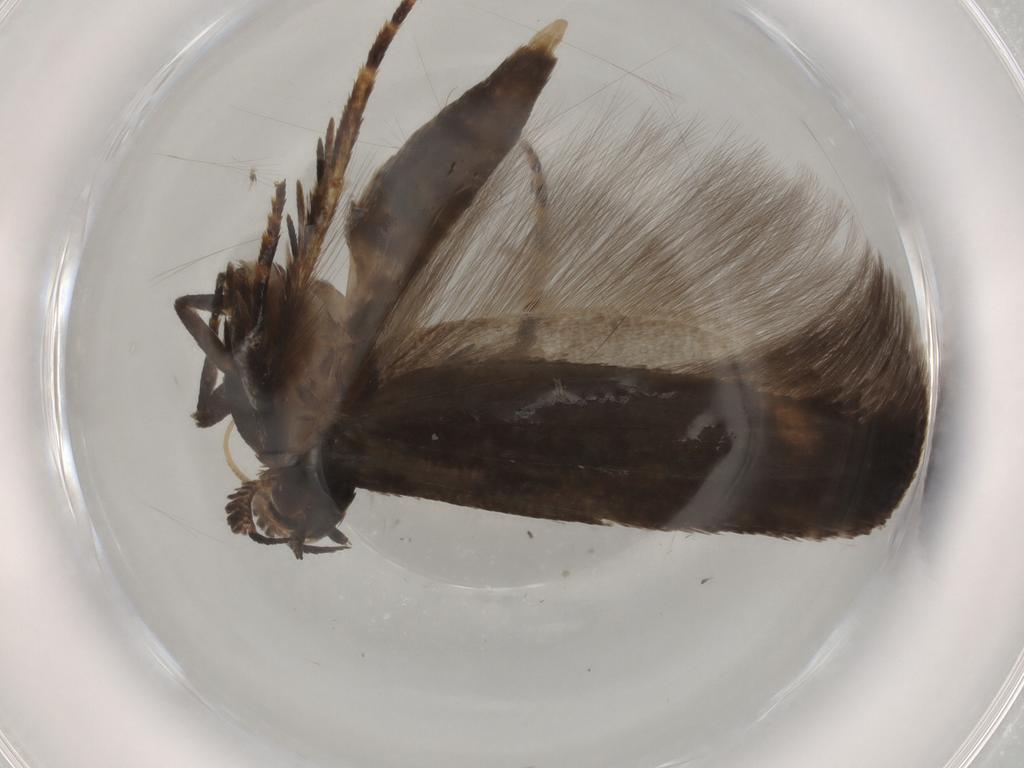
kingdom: Animalia
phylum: Arthropoda
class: Insecta
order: Lepidoptera
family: Gelechiidae
